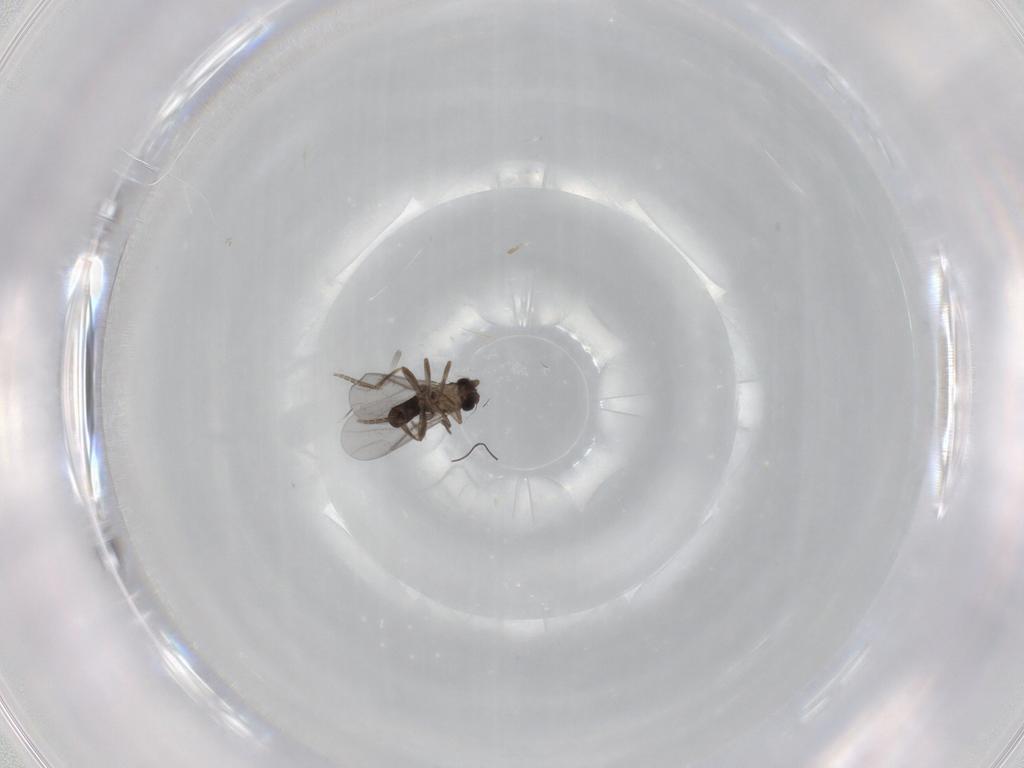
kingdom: Animalia
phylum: Arthropoda
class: Insecta
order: Diptera
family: Cecidomyiidae
